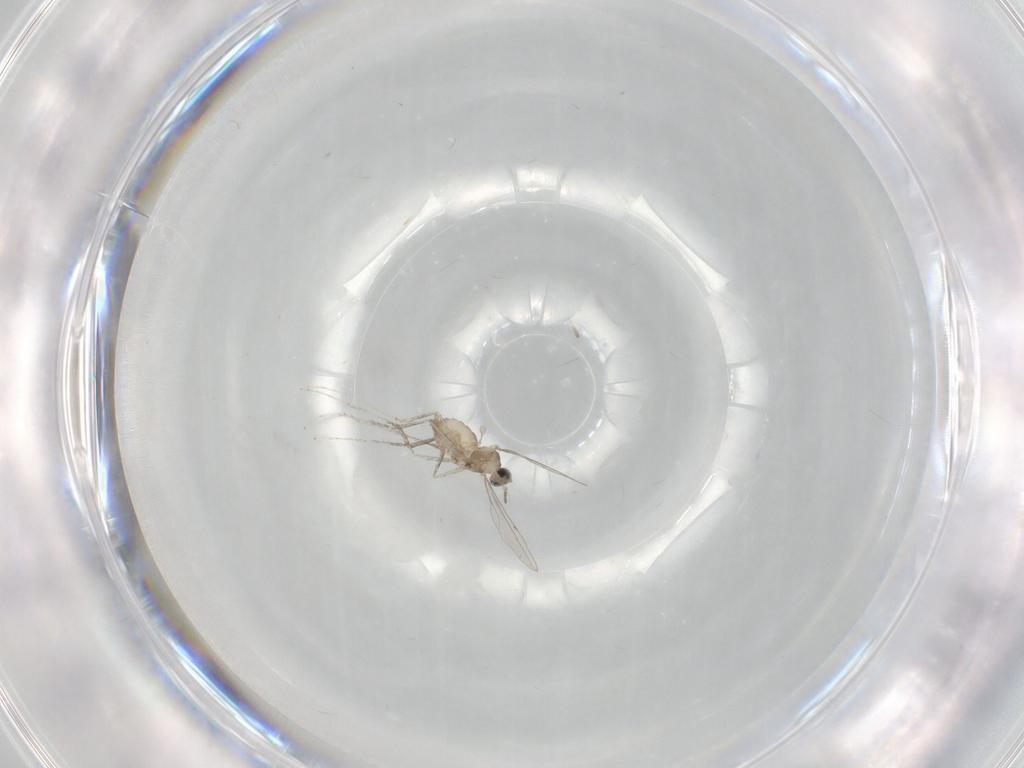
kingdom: Animalia
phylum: Arthropoda
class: Insecta
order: Diptera
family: Cecidomyiidae
